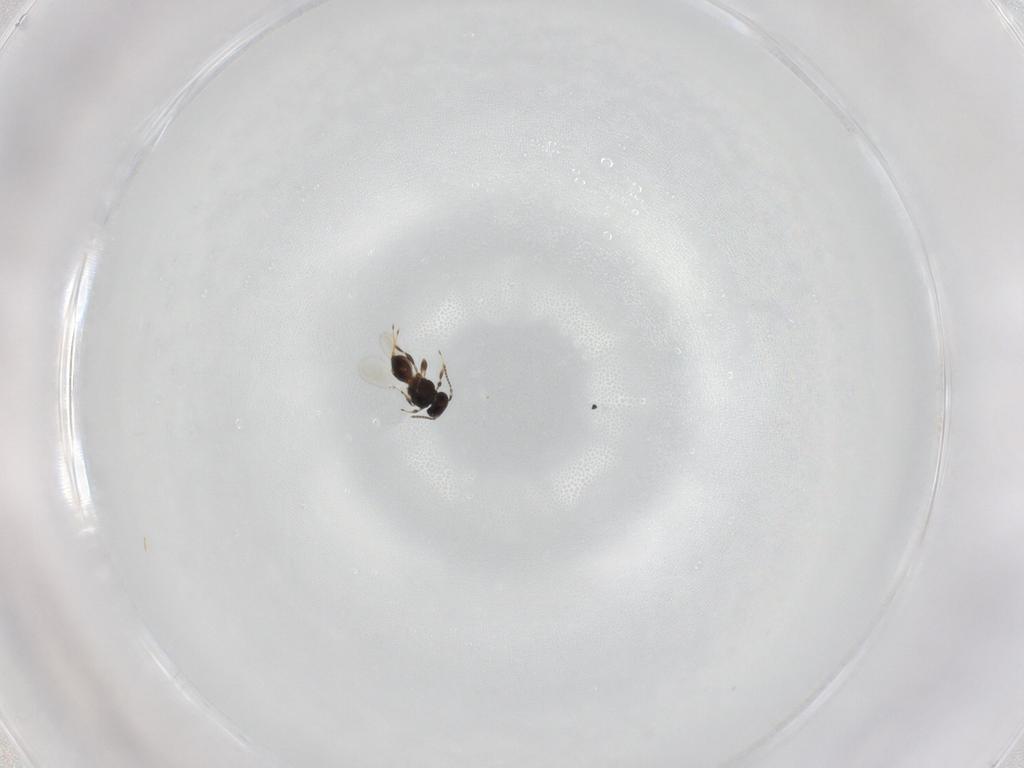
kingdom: Animalia
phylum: Arthropoda
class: Insecta
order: Hymenoptera
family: Platygastridae
